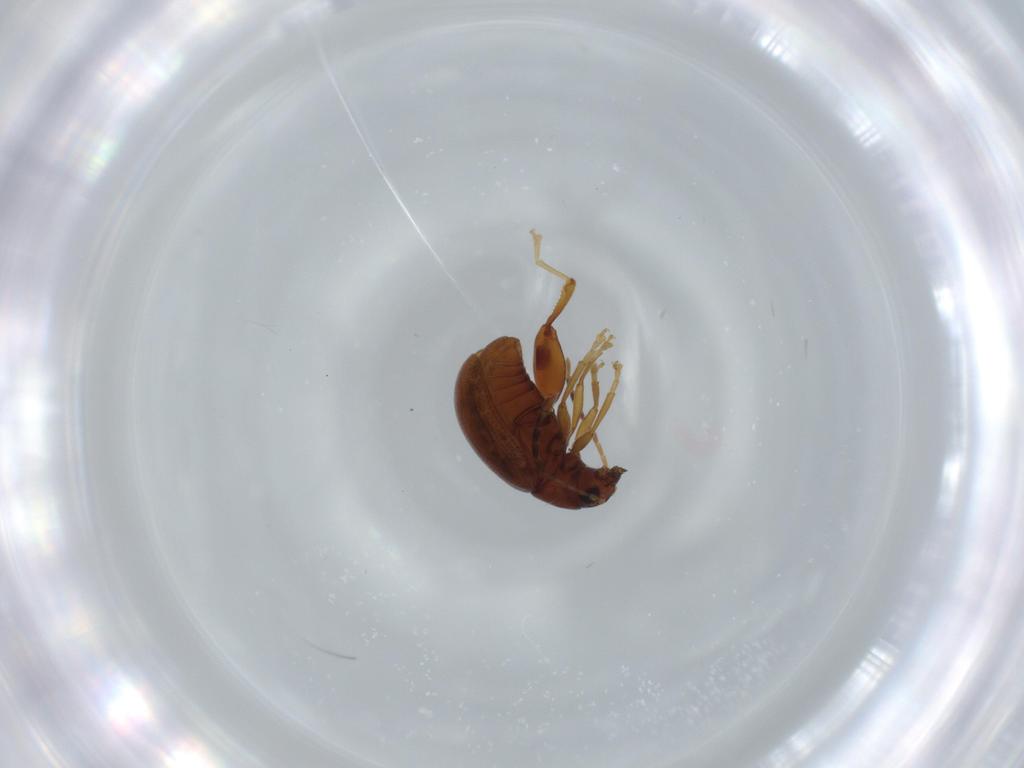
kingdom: Animalia
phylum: Arthropoda
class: Insecta
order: Coleoptera
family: Chrysomelidae
